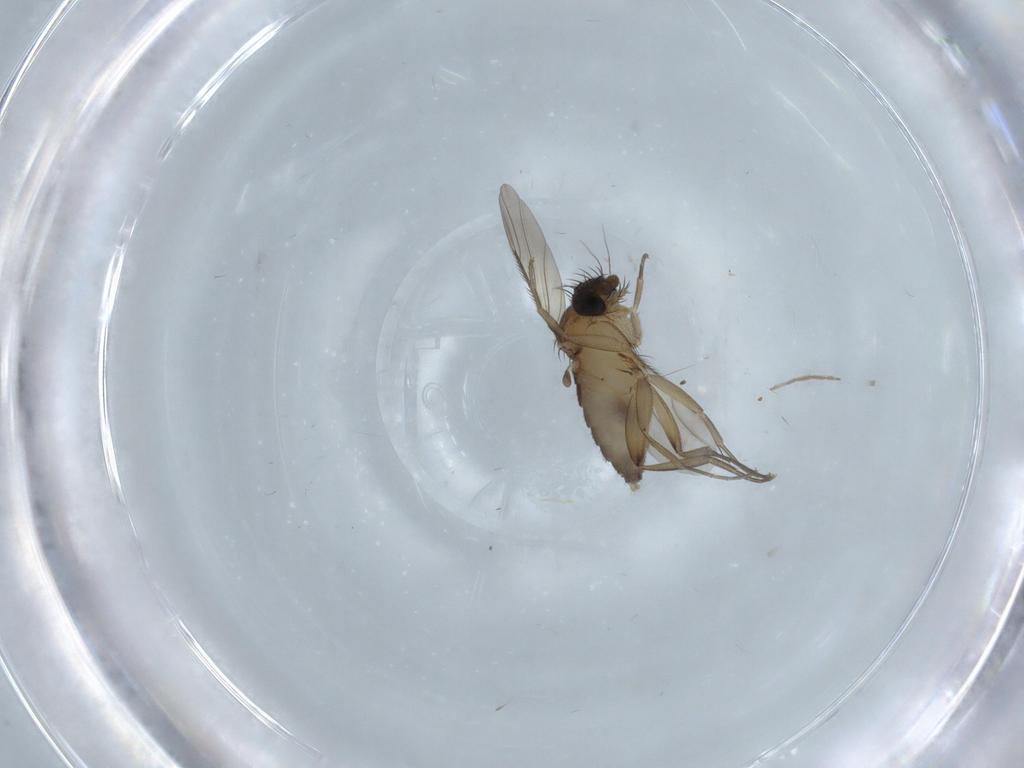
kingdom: Animalia
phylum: Arthropoda
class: Insecta
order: Diptera
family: Phoridae
